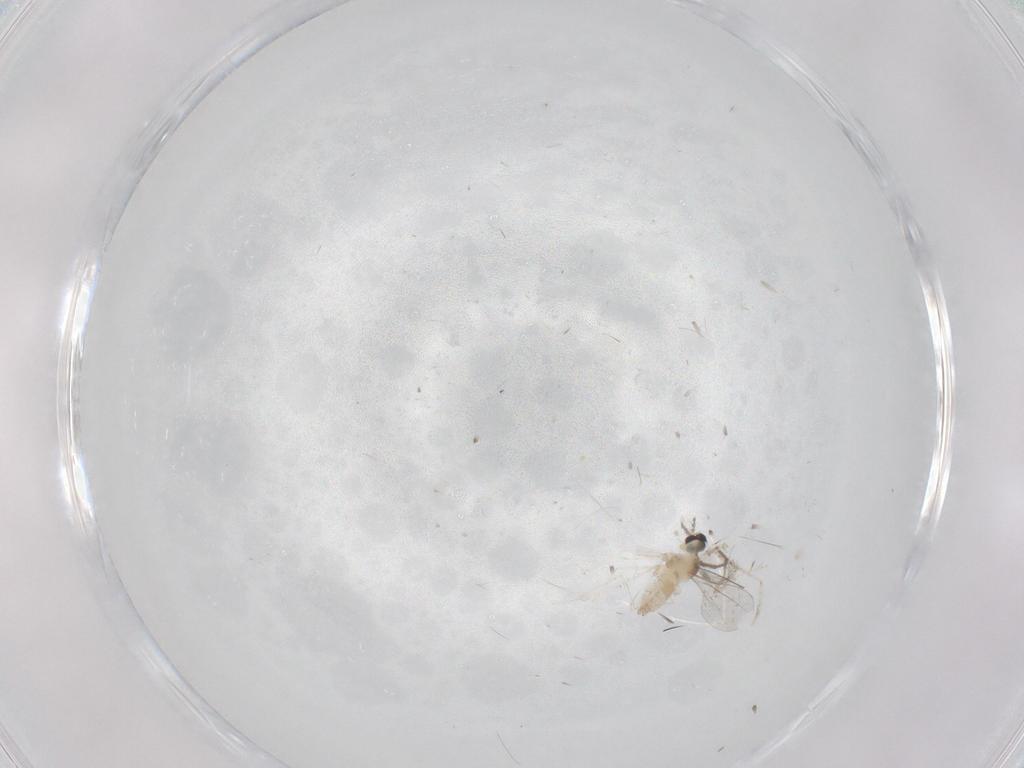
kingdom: Animalia
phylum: Arthropoda
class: Insecta
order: Diptera
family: Cecidomyiidae
